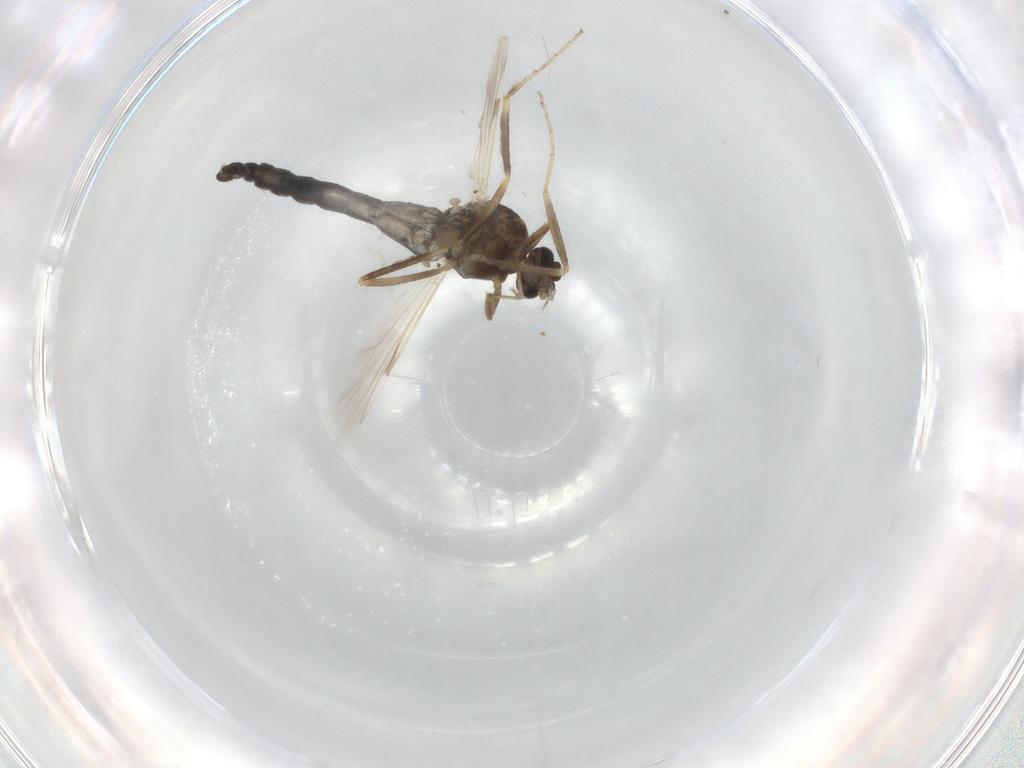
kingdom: Animalia
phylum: Arthropoda
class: Insecta
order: Diptera
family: Ceratopogonidae
